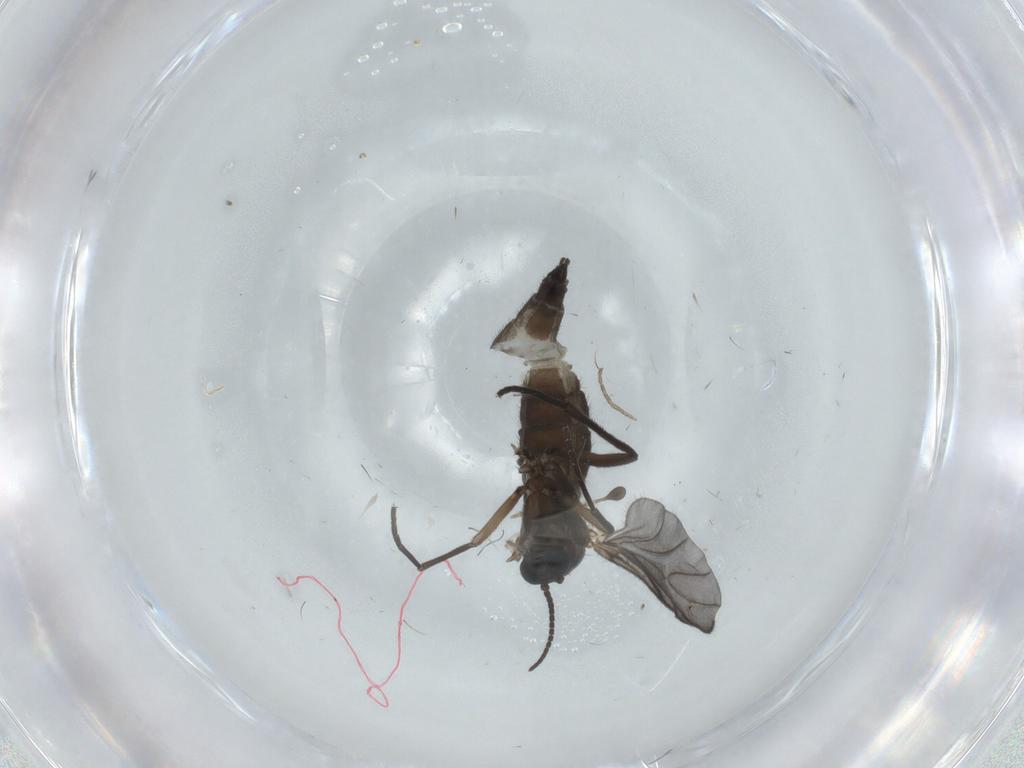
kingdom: Animalia
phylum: Arthropoda
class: Insecta
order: Diptera
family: Sciaridae
